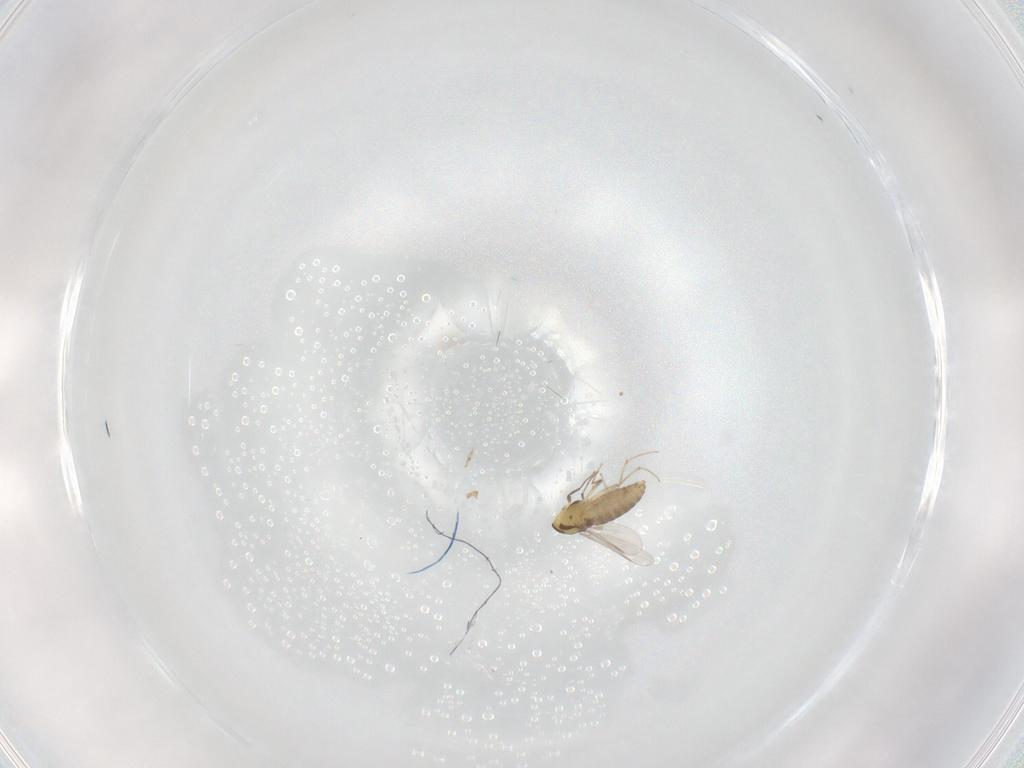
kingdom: Animalia
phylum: Arthropoda
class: Insecta
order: Diptera
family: Chironomidae
